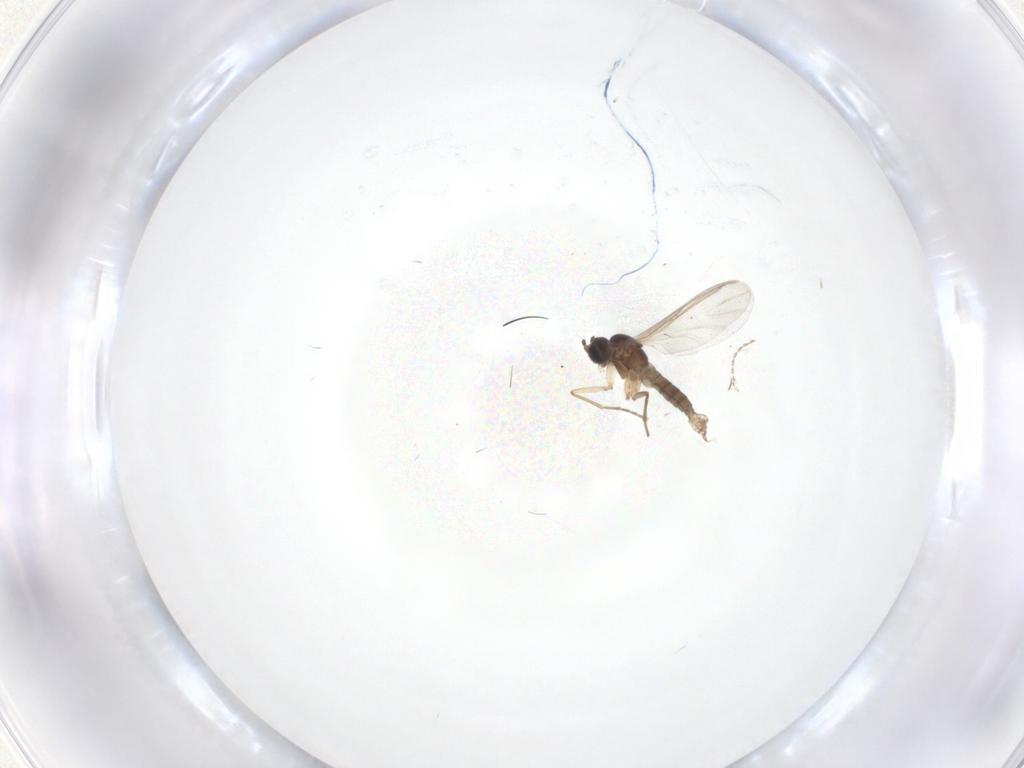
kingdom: Animalia
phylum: Arthropoda
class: Insecta
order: Diptera
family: Sciaridae
